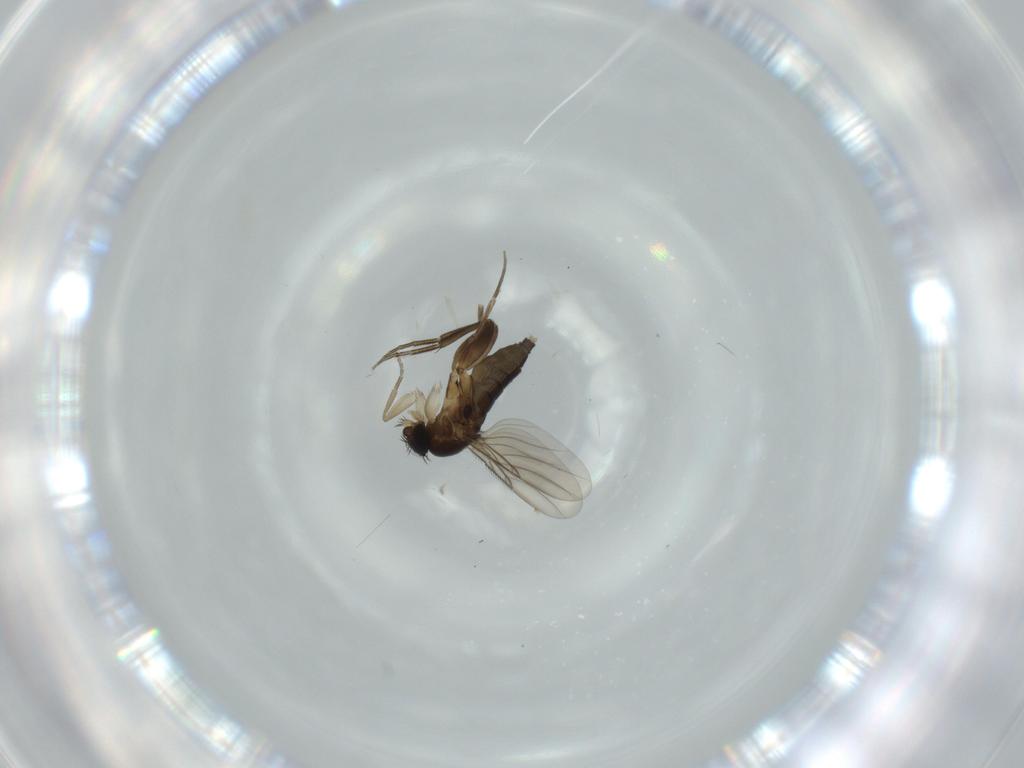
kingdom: Animalia
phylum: Arthropoda
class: Insecta
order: Diptera
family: Phoridae
